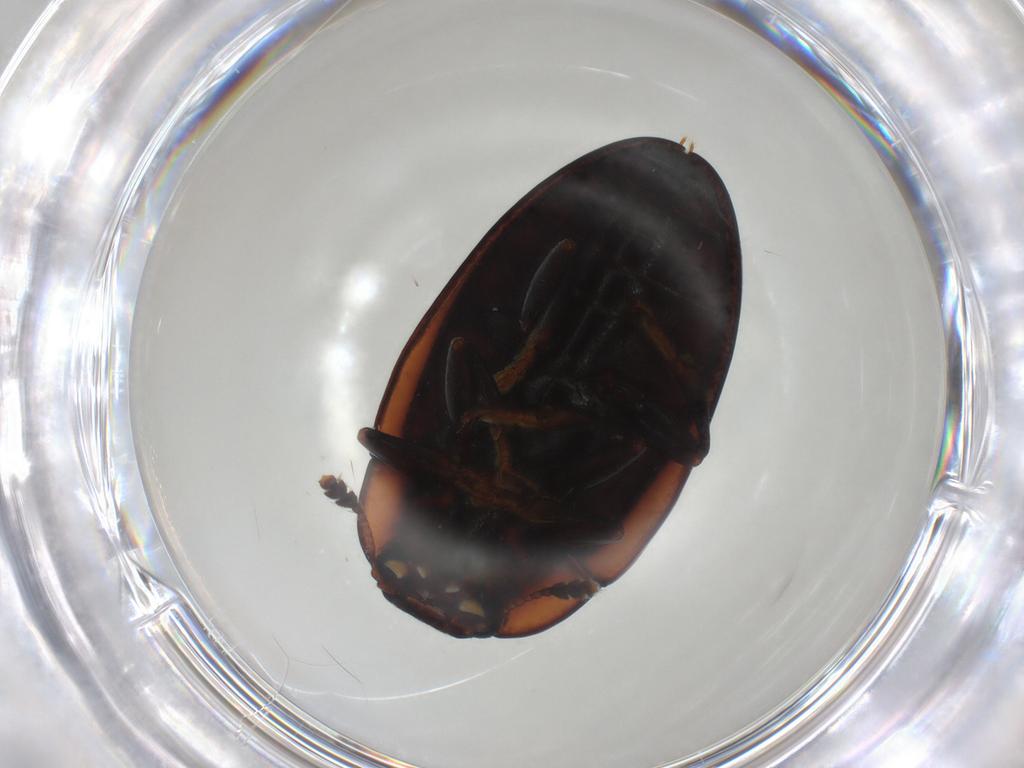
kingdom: Animalia
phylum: Arthropoda
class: Insecta
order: Coleoptera
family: Erotylidae
